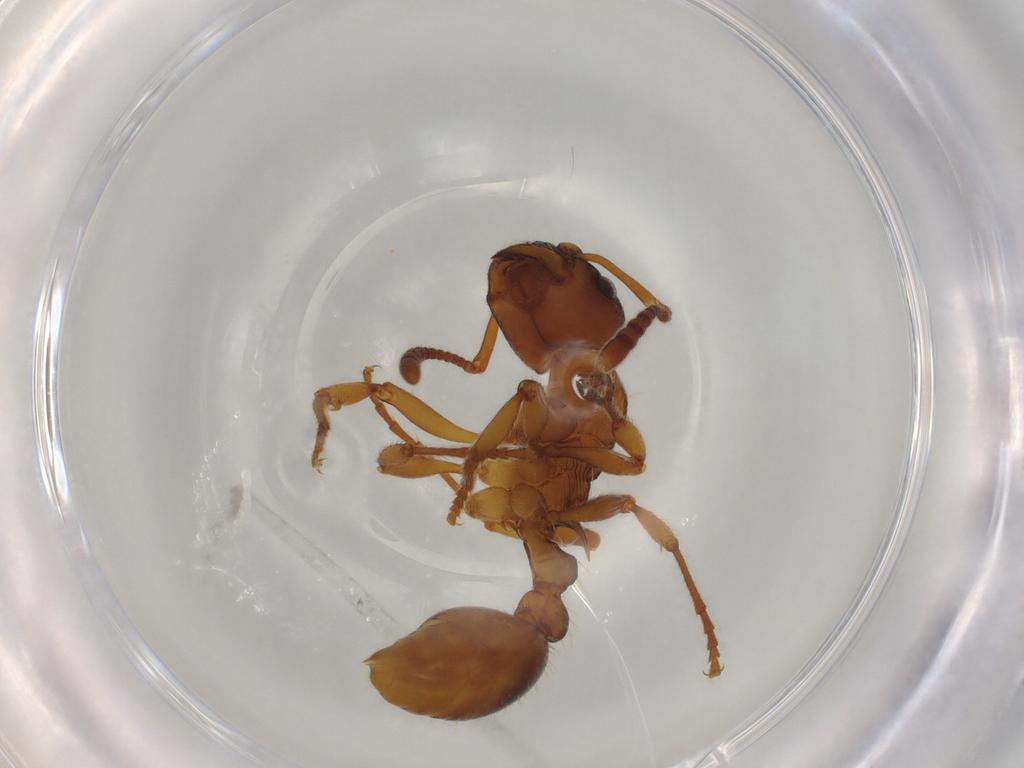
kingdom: Animalia
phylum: Arthropoda
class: Insecta
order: Hymenoptera
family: Formicidae
